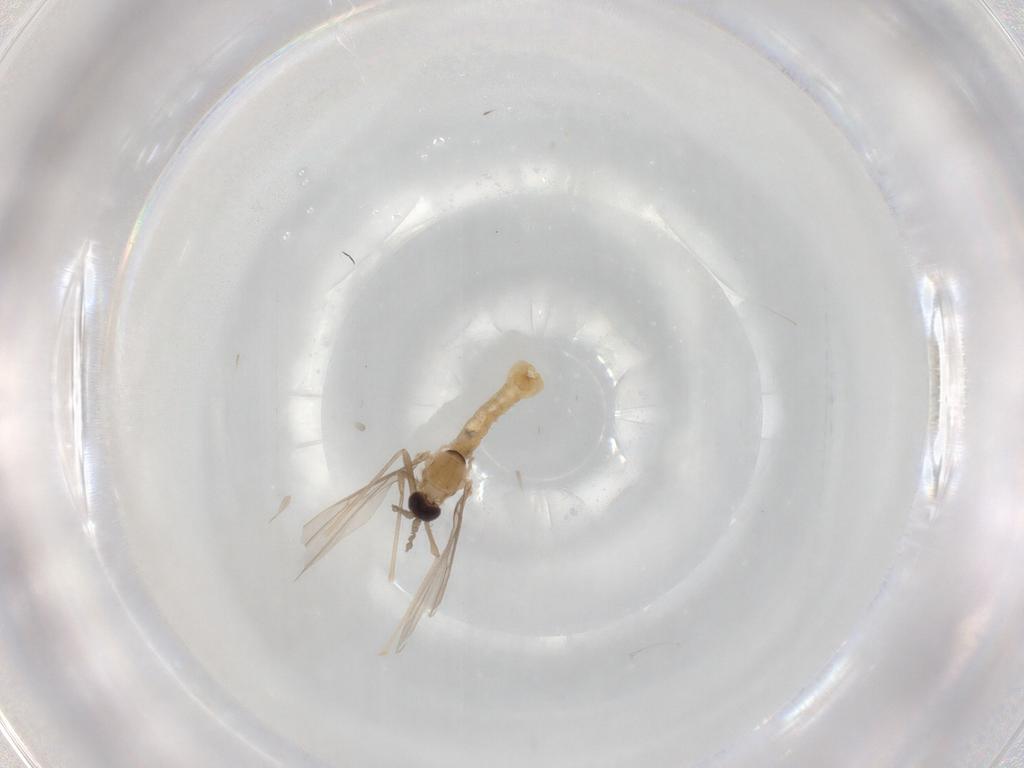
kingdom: Animalia
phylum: Arthropoda
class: Insecta
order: Diptera
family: Cecidomyiidae
